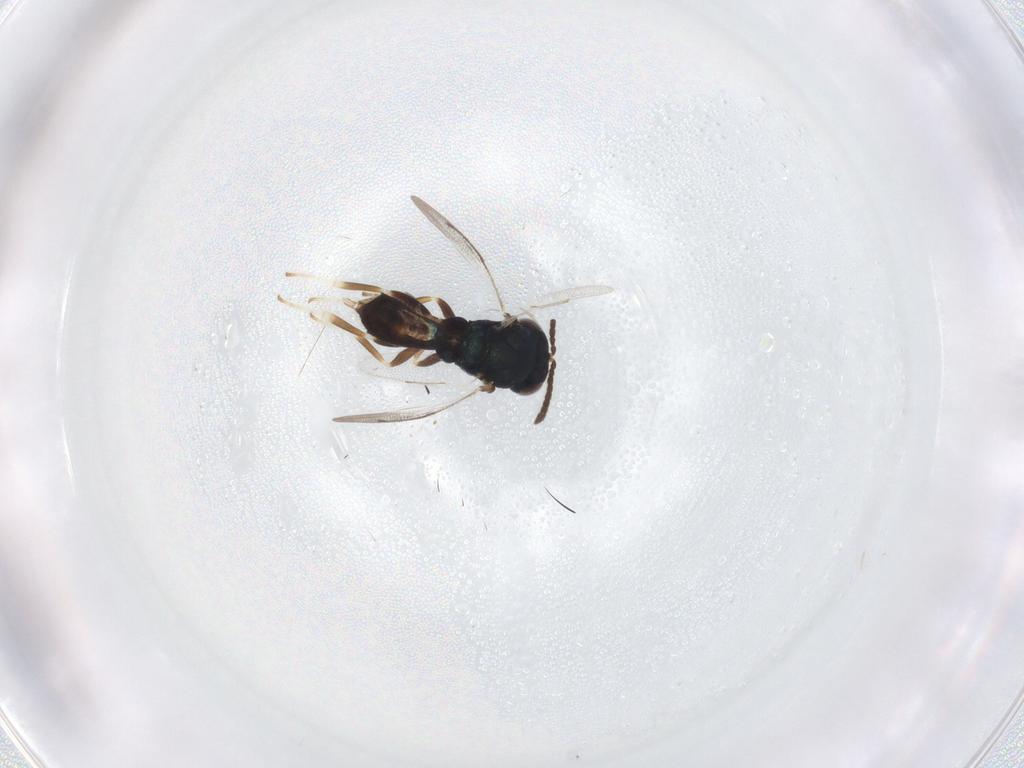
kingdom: Animalia
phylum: Arthropoda
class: Insecta
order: Hymenoptera
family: Pteromalidae
